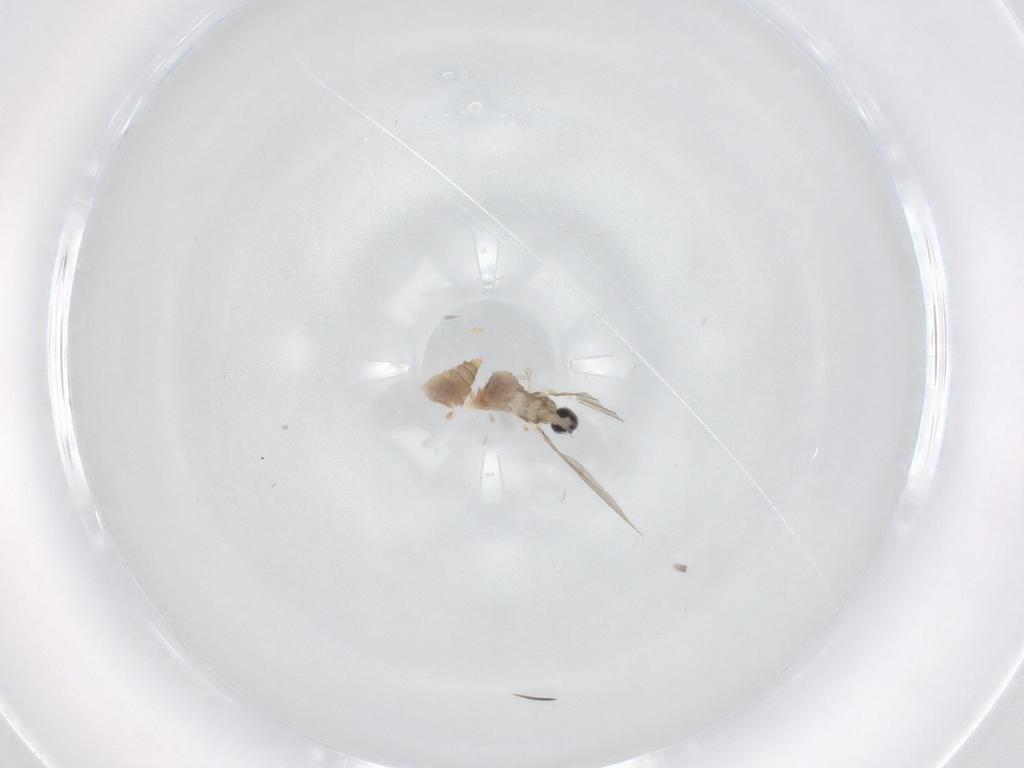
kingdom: Animalia
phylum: Arthropoda
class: Insecta
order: Diptera
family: Cecidomyiidae
